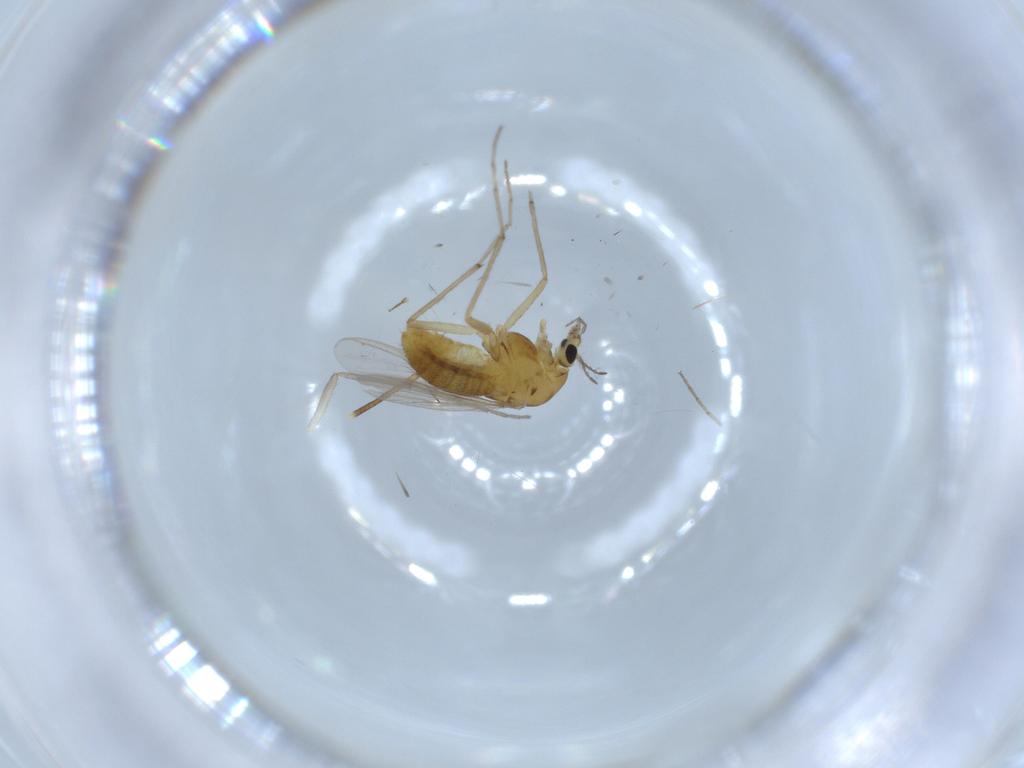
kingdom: Animalia
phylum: Arthropoda
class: Insecta
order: Diptera
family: Chironomidae
